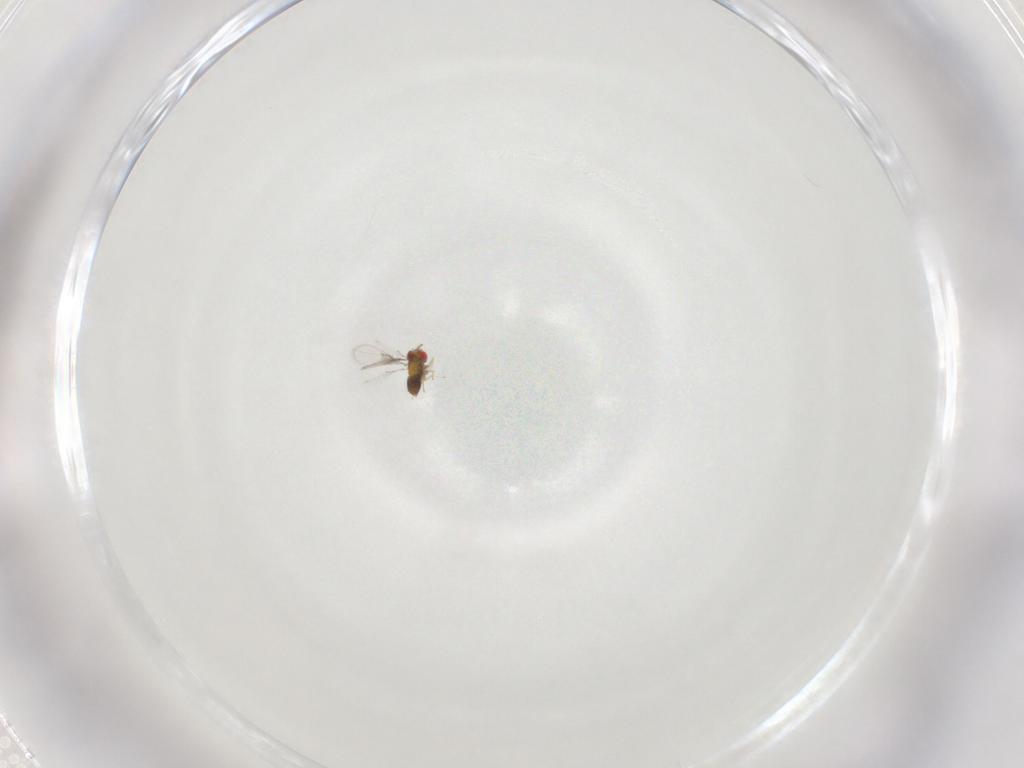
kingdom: Animalia
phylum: Arthropoda
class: Insecta
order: Hymenoptera
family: Trichogrammatidae
